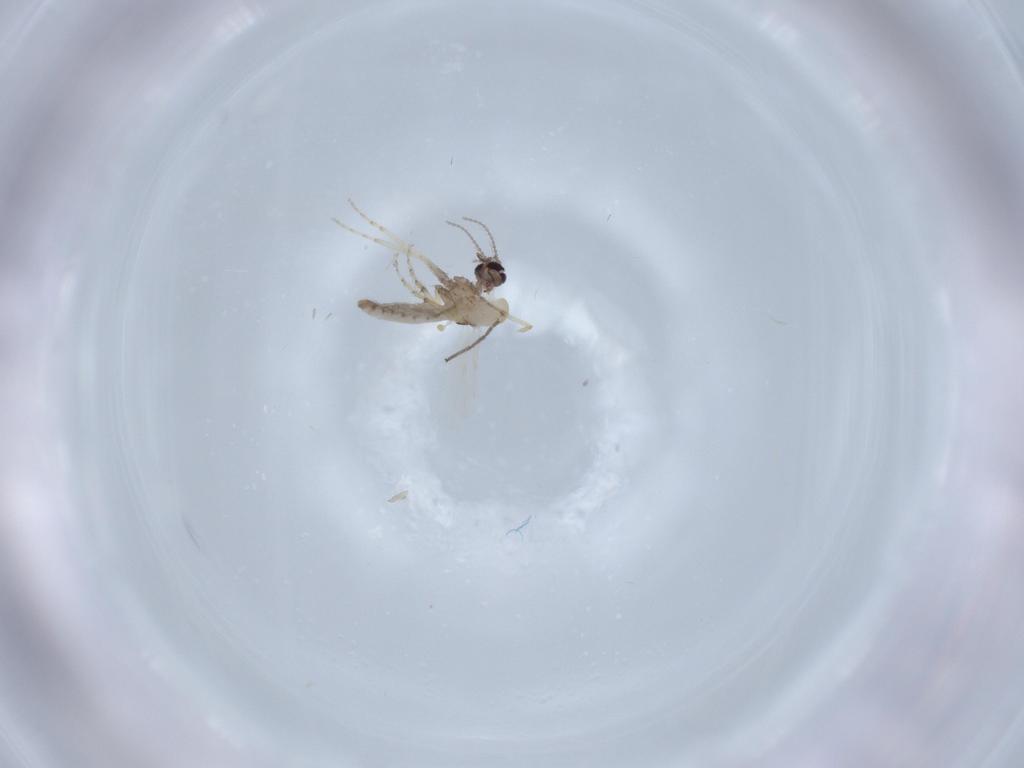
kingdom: Animalia
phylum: Arthropoda
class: Insecta
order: Diptera
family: Ceratopogonidae
